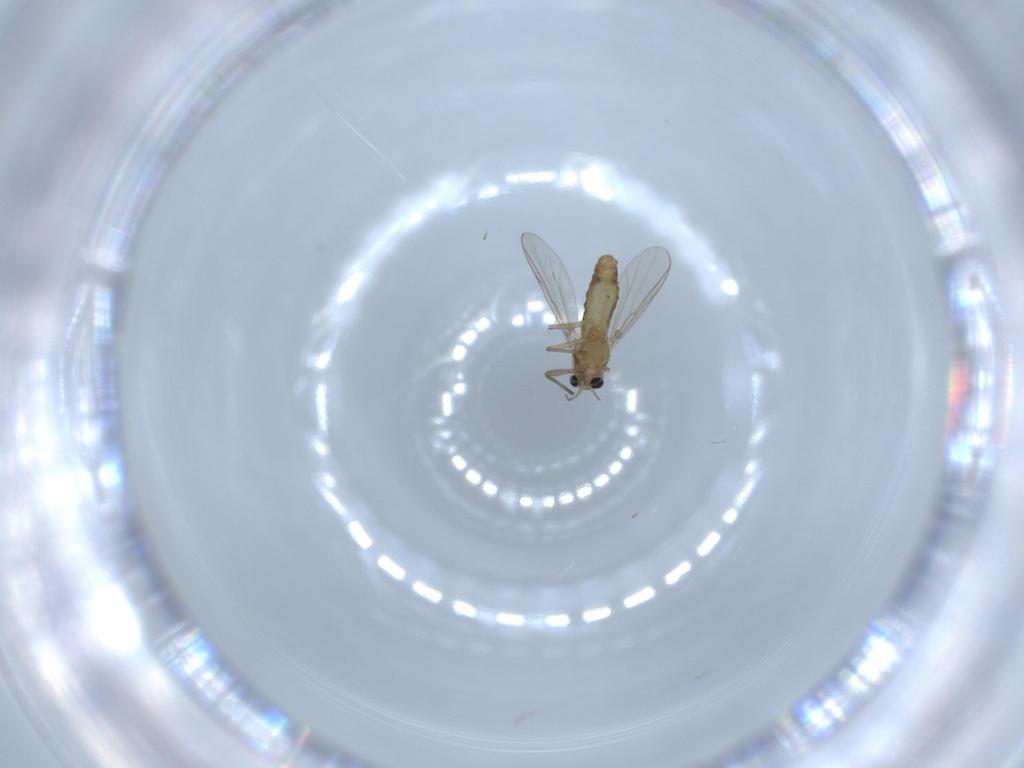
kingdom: Animalia
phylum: Arthropoda
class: Insecta
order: Diptera
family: Chironomidae
